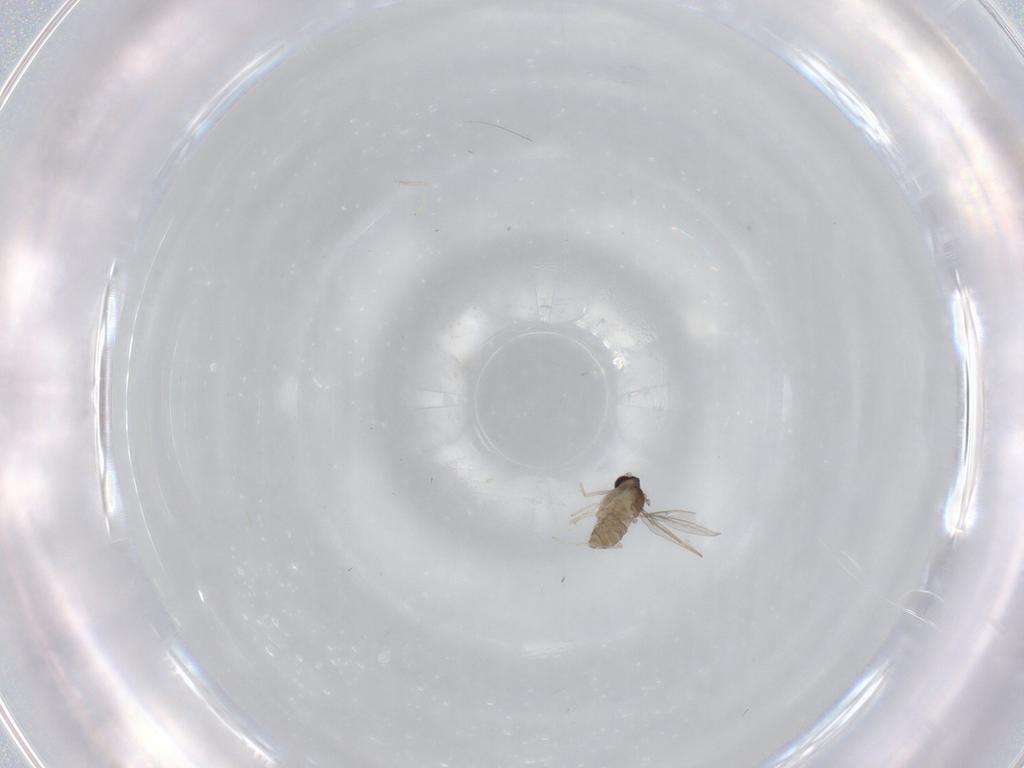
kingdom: Animalia
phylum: Arthropoda
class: Insecta
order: Diptera
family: Cecidomyiidae
